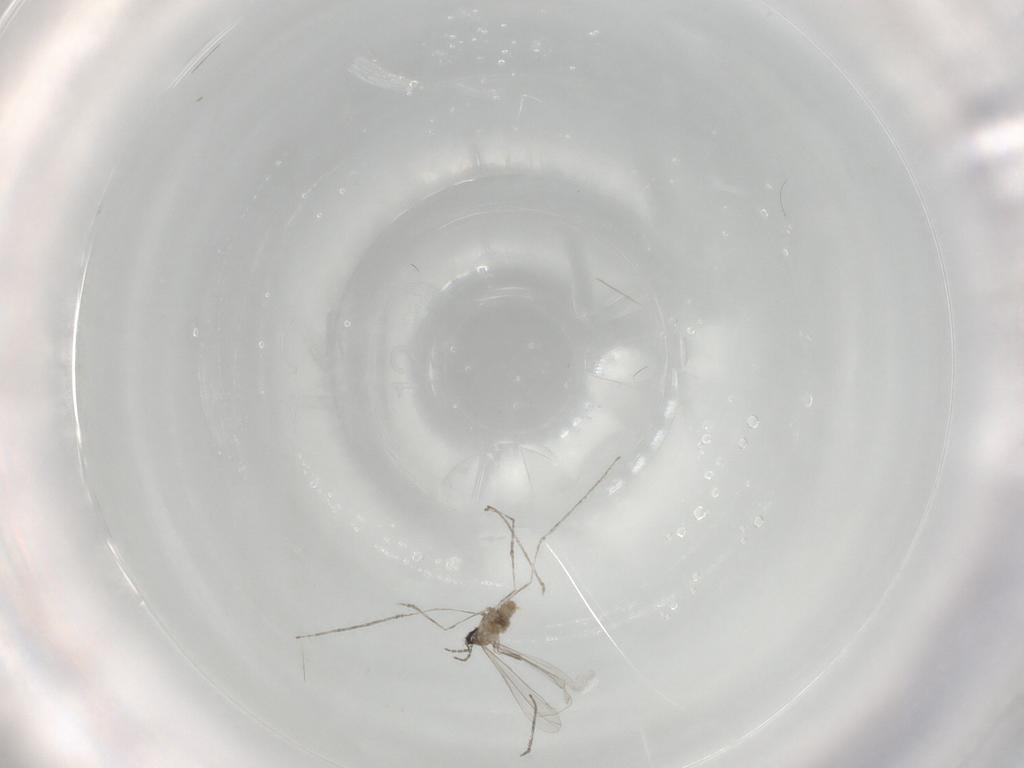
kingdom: Animalia
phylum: Arthropoda
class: Insecta
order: Diptera
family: Cecidomyiidae
